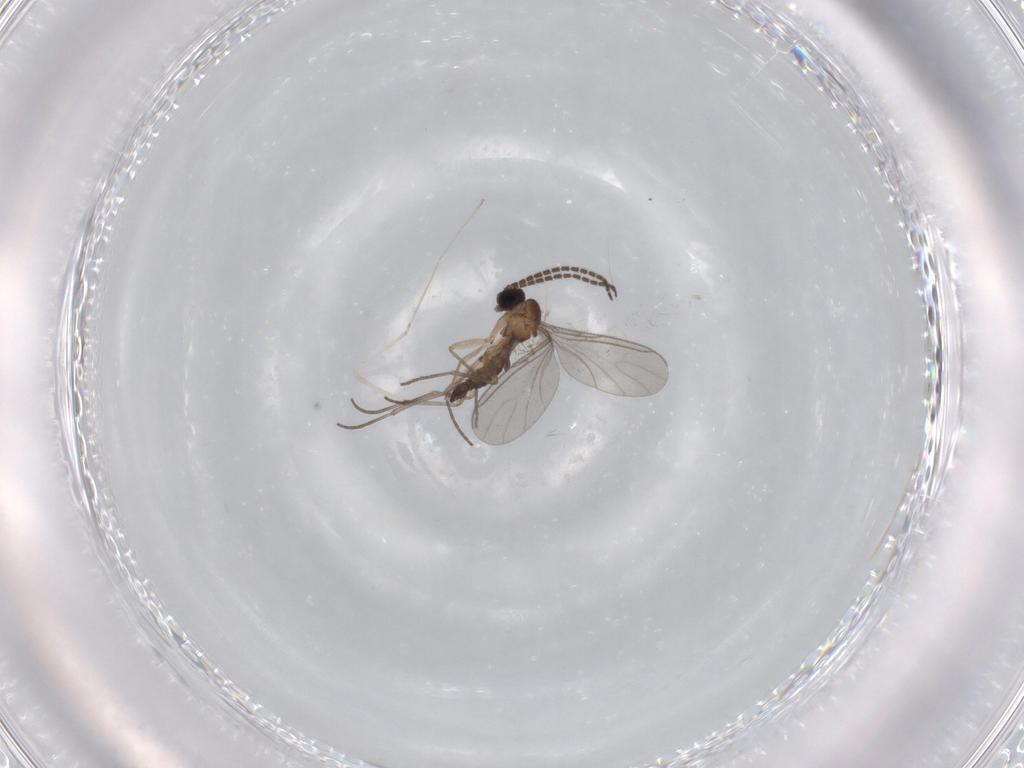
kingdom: Animalia
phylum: Arthropoda
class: Insecta
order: Diptera
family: Sciaridae
